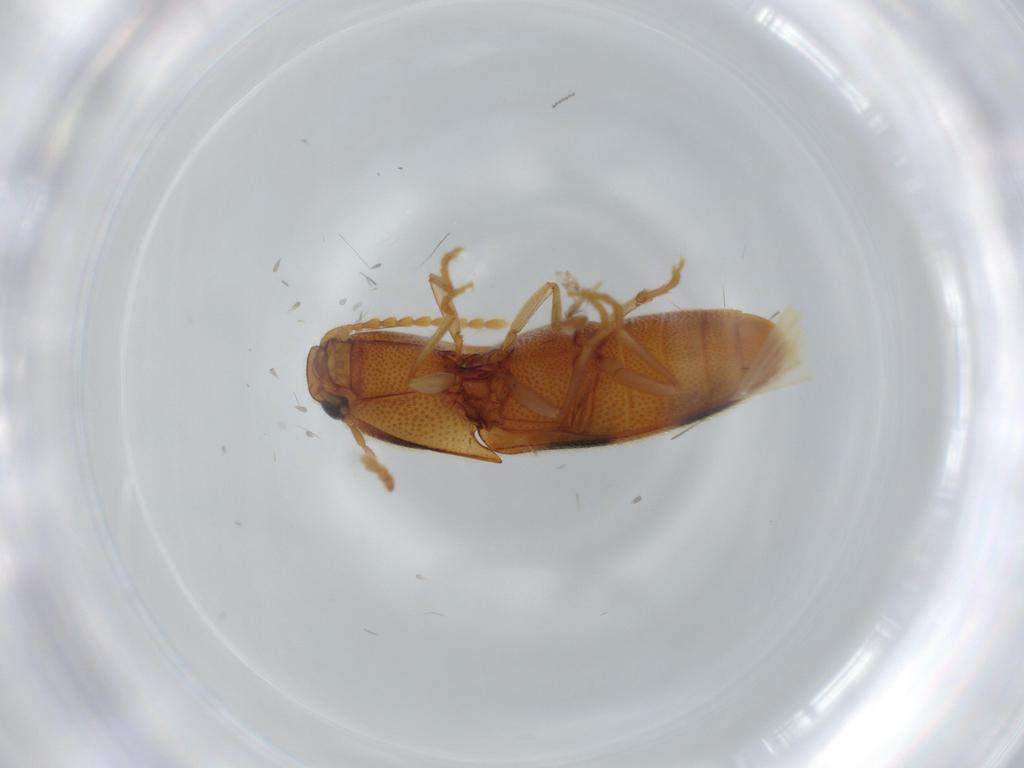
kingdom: Animalia
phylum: Arthropoda
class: Insecta
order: Coleoptera
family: Elateridae
